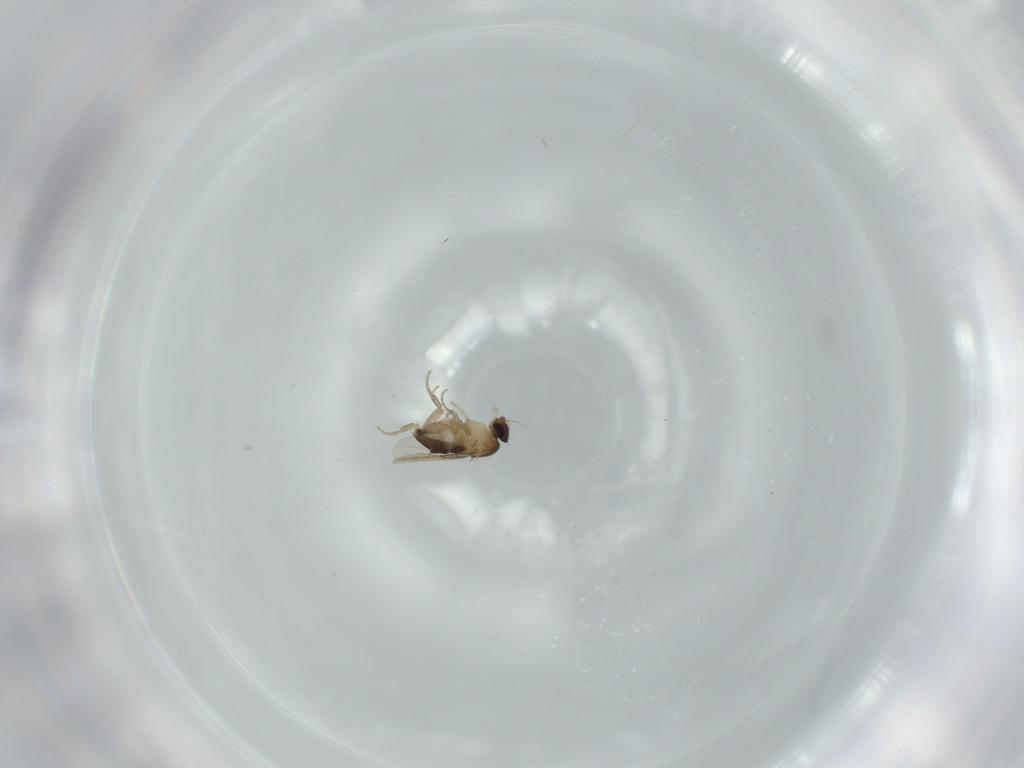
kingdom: Animalia
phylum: Arthropoda
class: Insecta
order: Diptera
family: Phoridae
